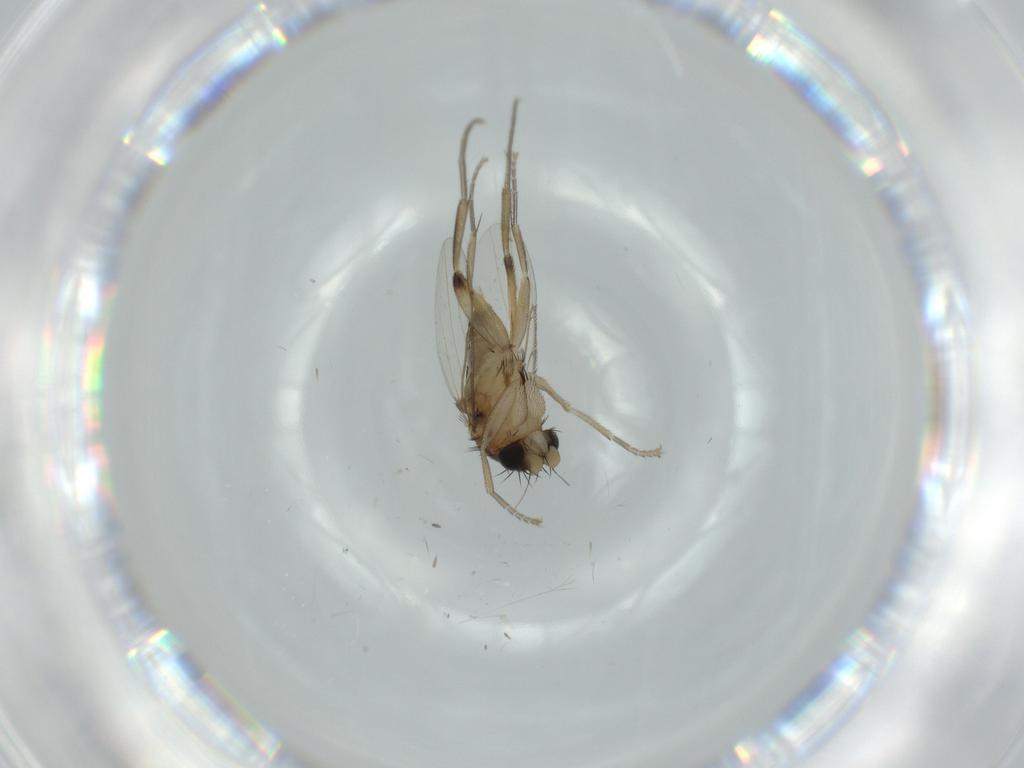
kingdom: Animalia
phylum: Arthropoda
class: Insecta
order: Diptera
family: Phoridae
